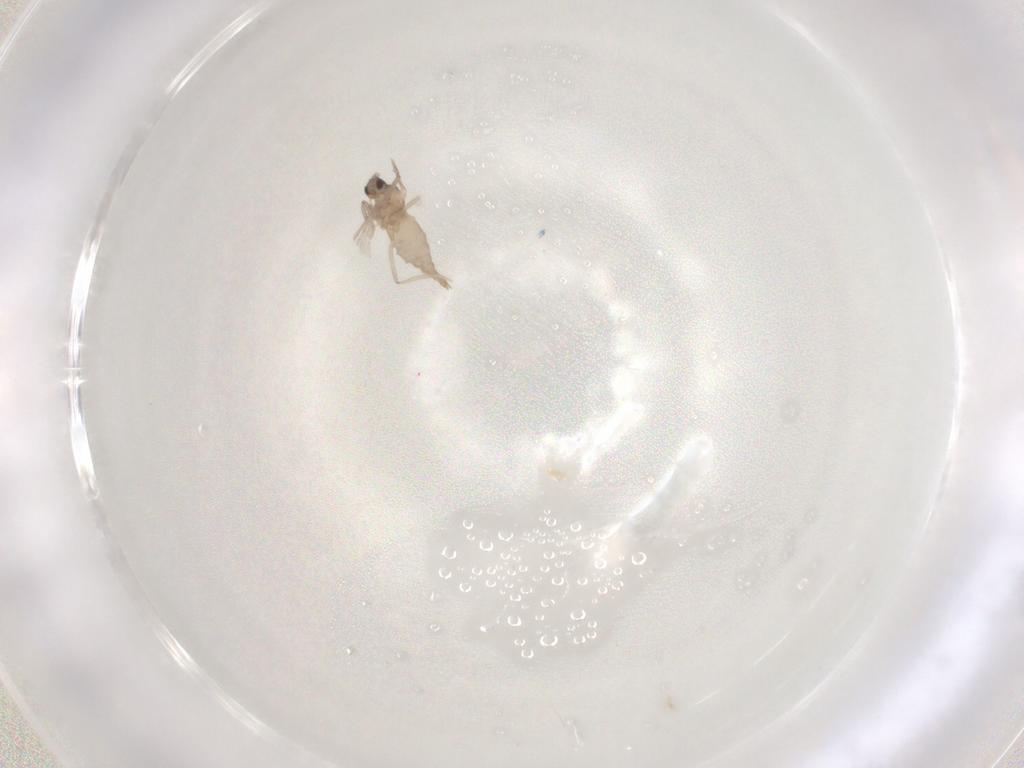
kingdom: Animalia
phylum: Arthropoda
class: Insecta
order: Diptera
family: Cecidomyiidae
